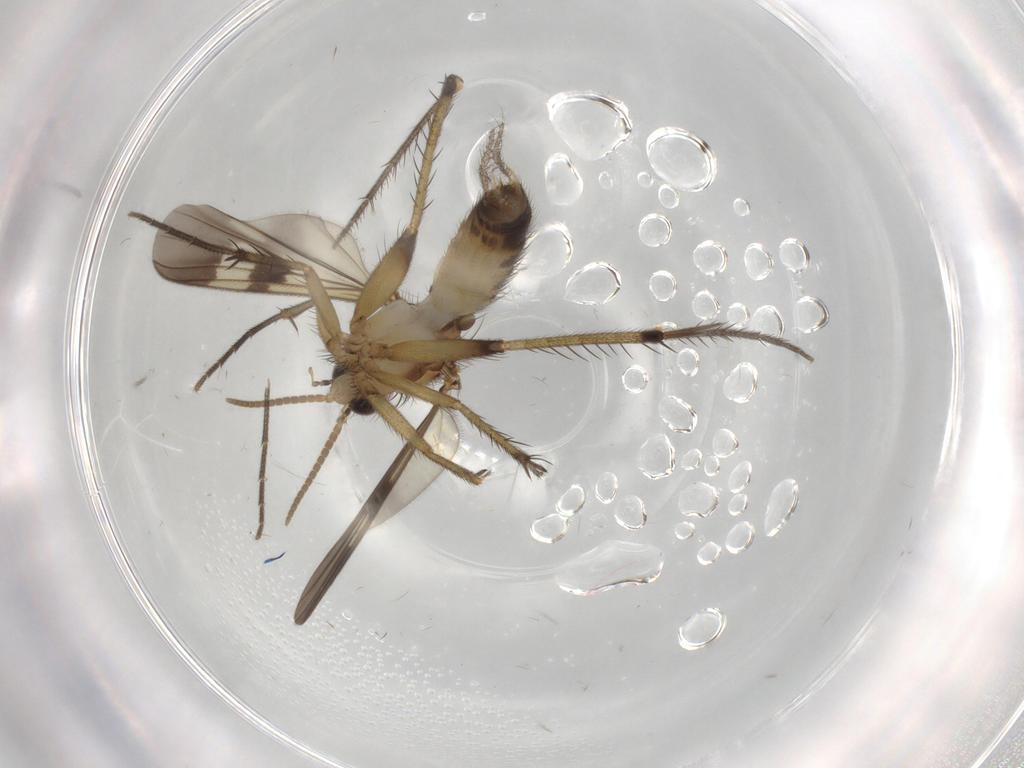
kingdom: Animalia
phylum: Arthropoda
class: Insecta
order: Diptera
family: Mycetophilidae
